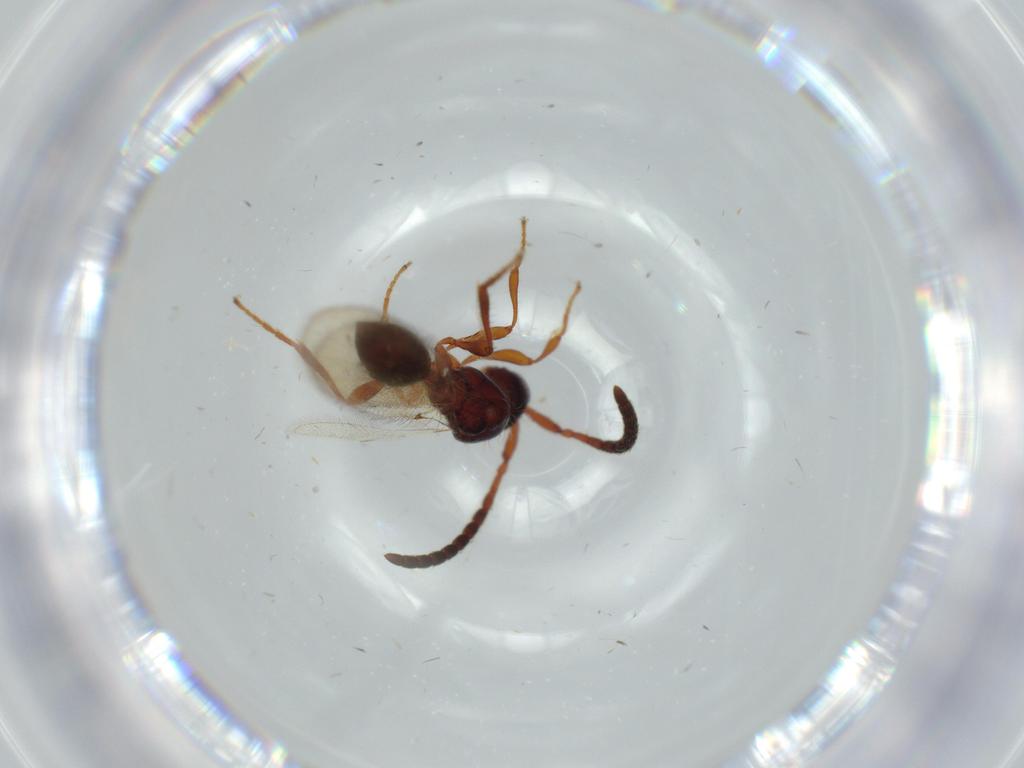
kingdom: Animalia
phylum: Arthropoda
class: Insecta
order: Hymenoptera
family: Diapriidae
